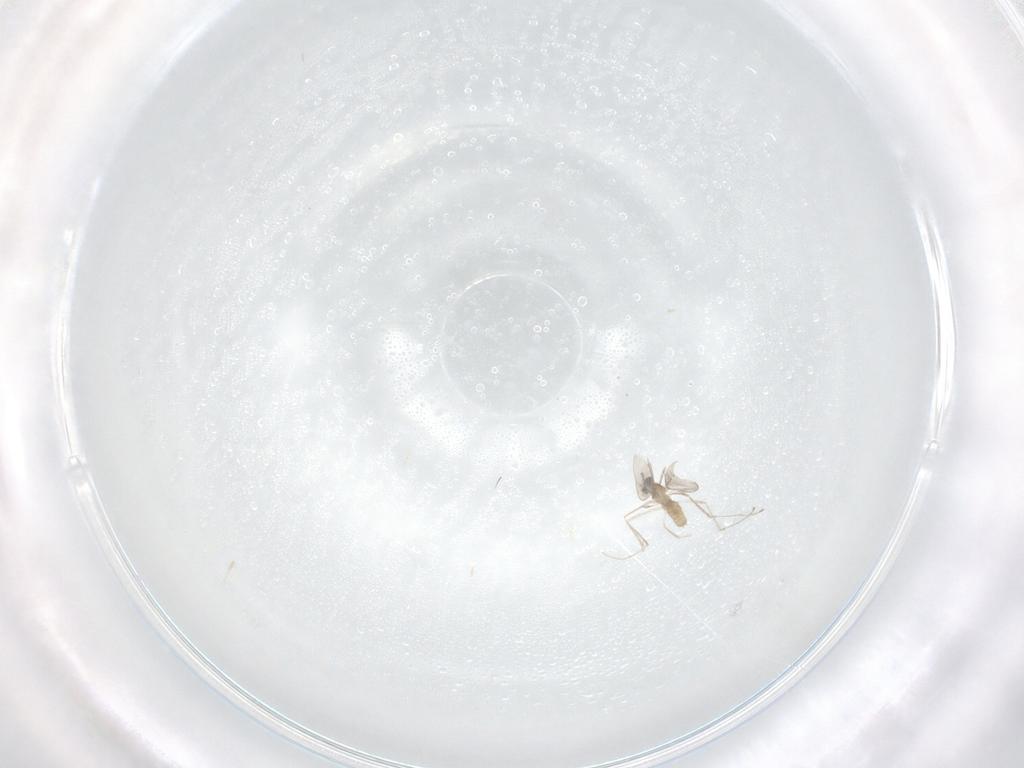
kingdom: Animalia
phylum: Arthropoda
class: Insecta
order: Diptera
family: Cecidomyiidae
